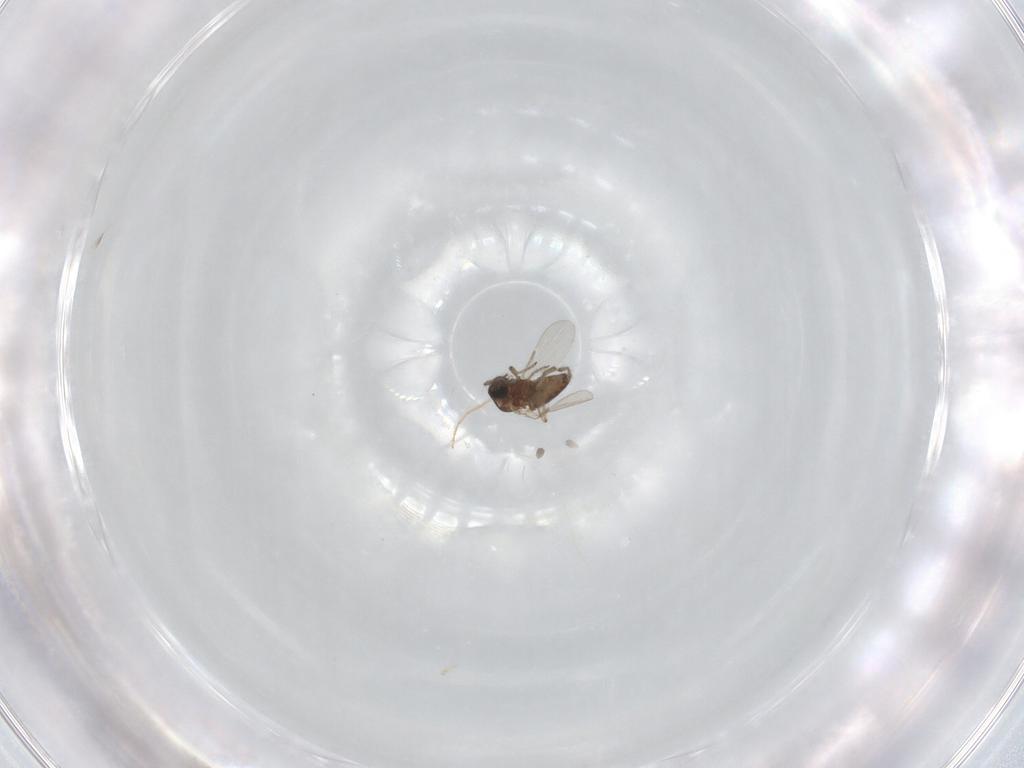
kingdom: Animalia
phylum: Arthropoda
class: Insecta
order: Diptera
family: Ceratopogonidae
